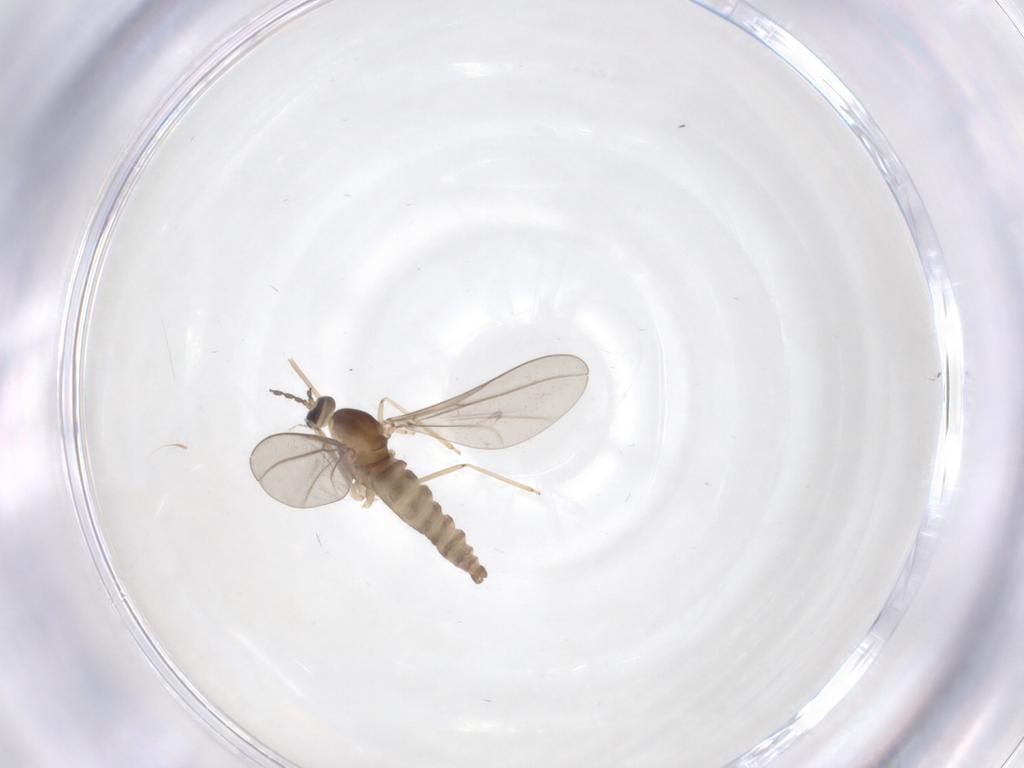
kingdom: Animalia
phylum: Arthropoda
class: Insecta
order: Diptera
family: Cecidomyiidae
